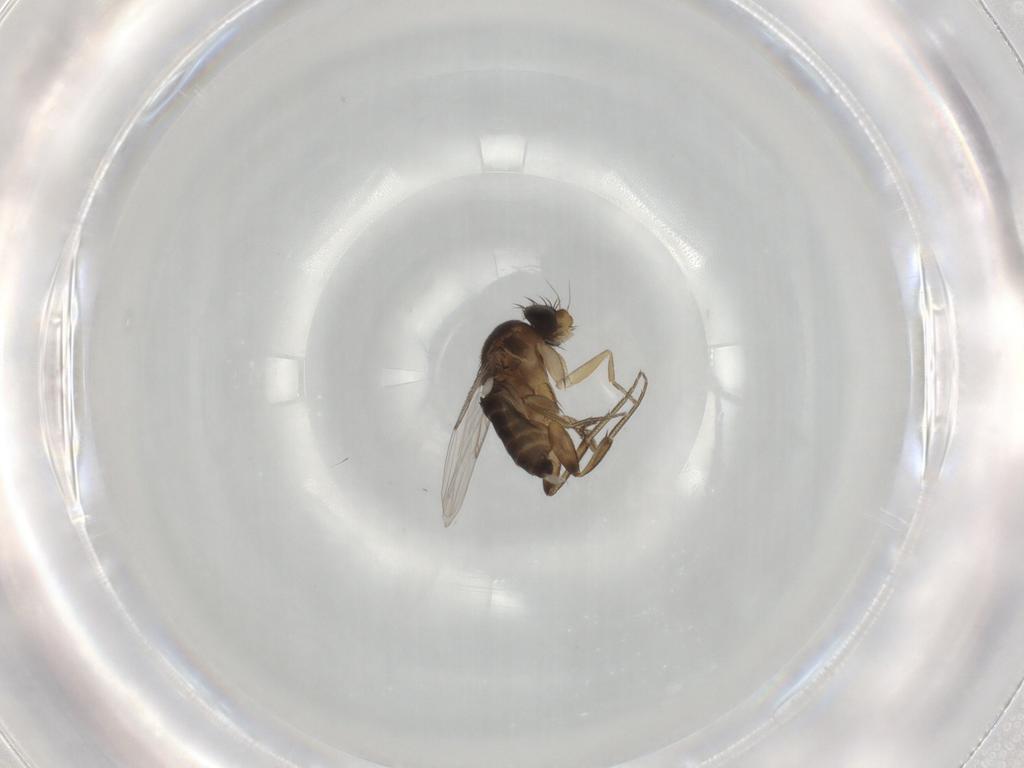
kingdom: Animalia
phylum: Arthropoda
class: Insecta
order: Diptera
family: Phoridae
